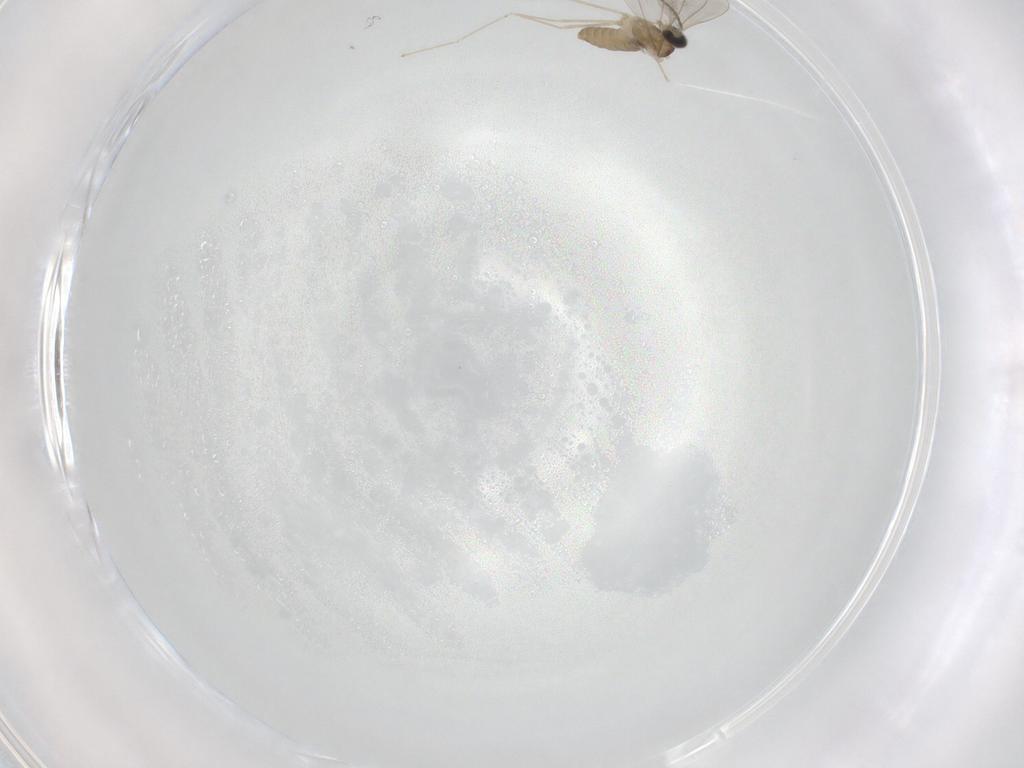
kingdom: Animalia
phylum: Arthropoda
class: Insecta
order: Diptera
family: Cecidomyiidae
